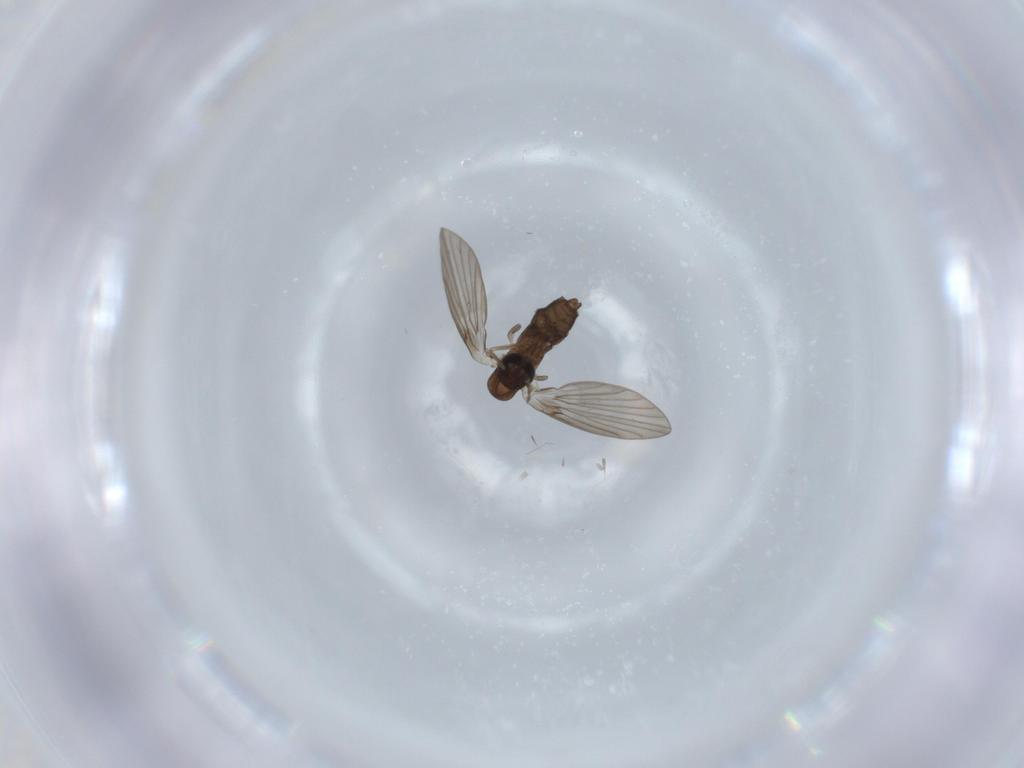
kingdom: Animalia
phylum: Arthropoda
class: Insecta
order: Diptera
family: Psychodidae
